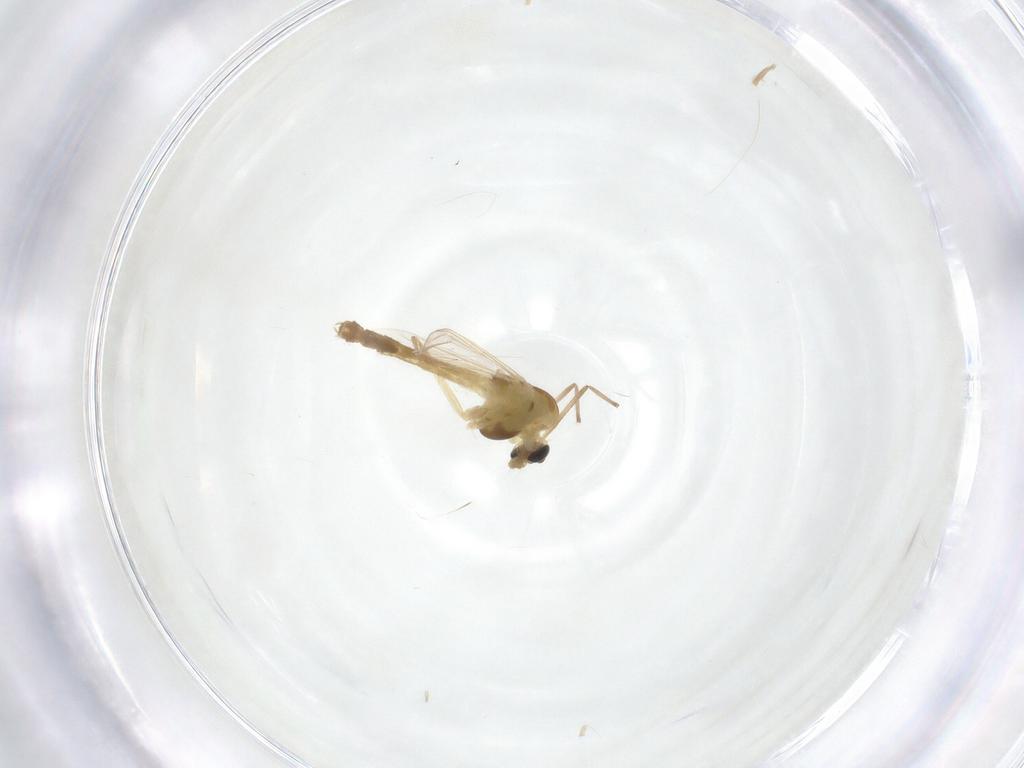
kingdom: Animalia
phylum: Arthropoda
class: Insecta
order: Diptera
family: Chironomidae
